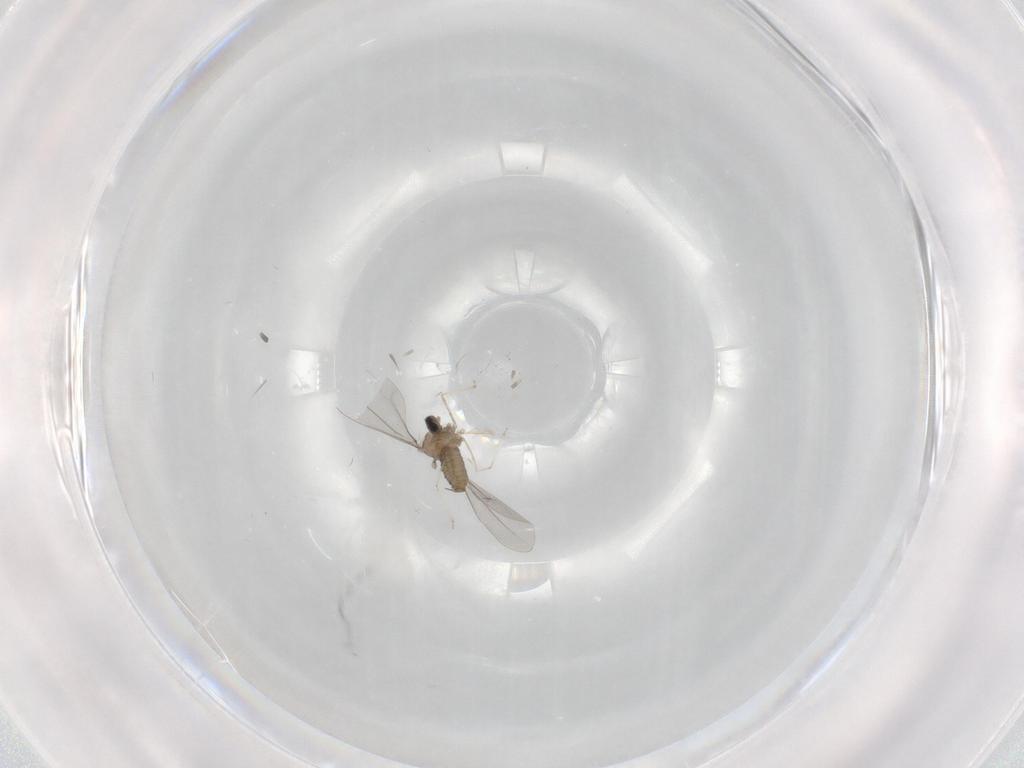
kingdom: Animalia
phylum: Arthropoda
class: Insecta
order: Diptera
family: Cecidomyiidae
